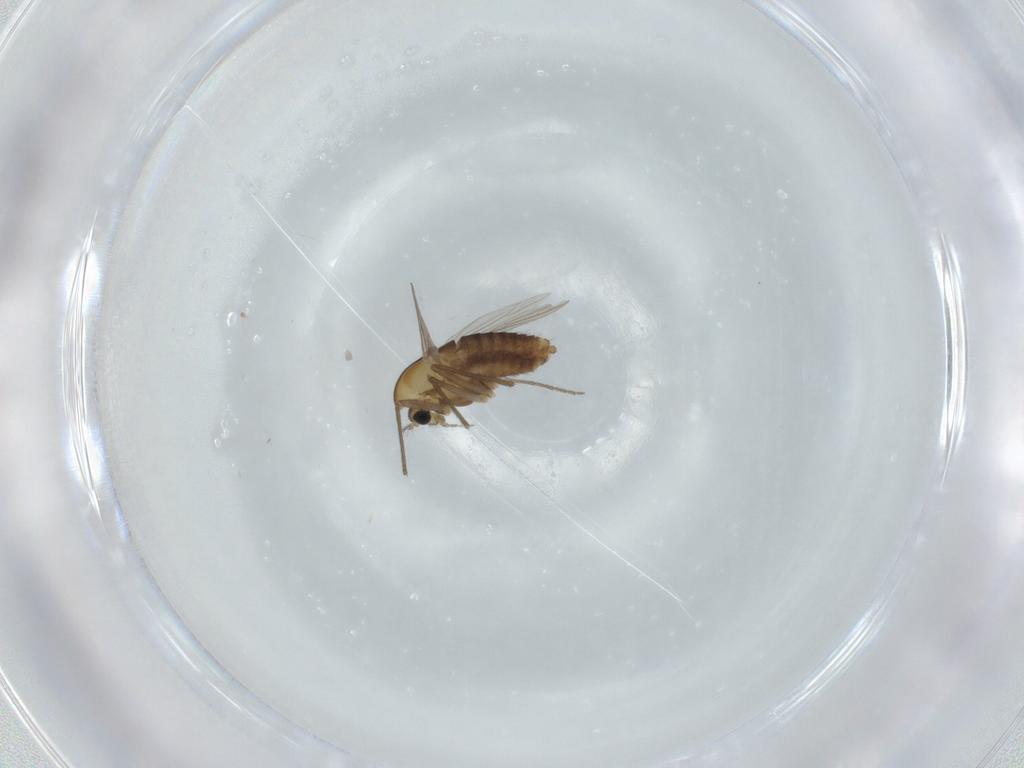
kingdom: Animalia
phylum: Arthropoda
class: Insecta
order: Diptera
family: Chironomidae
